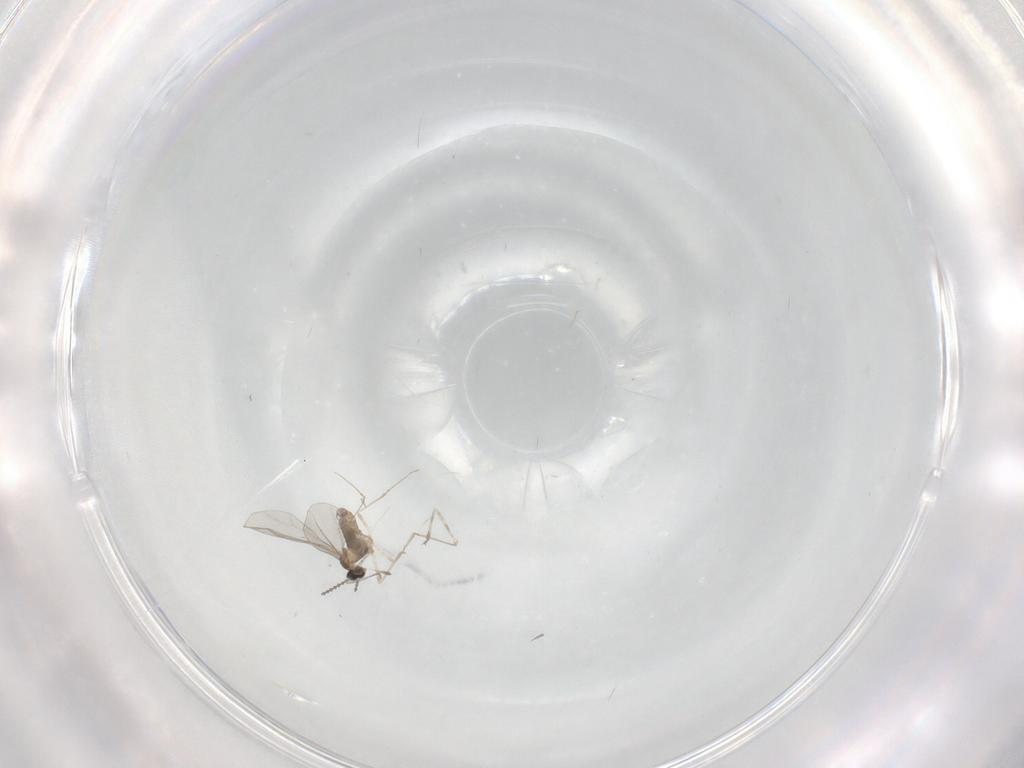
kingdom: Animalia
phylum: Arthropoda
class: Insecta
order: Diptera
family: Cecidomyiidae
